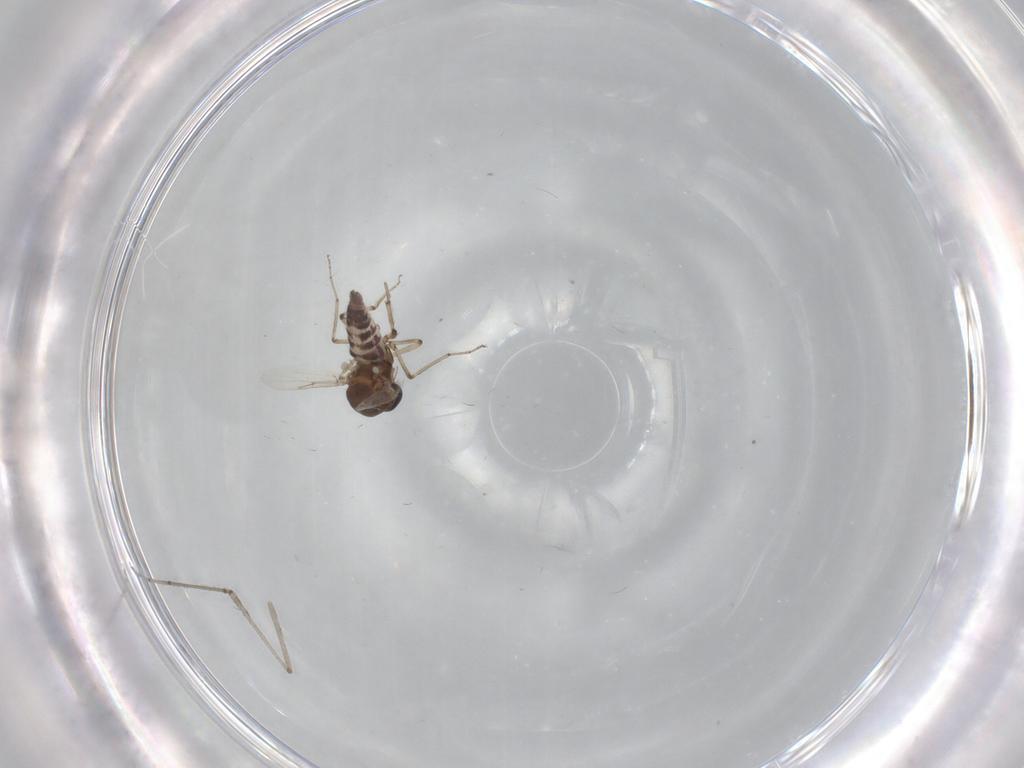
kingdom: Animalia
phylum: Arthropoda
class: Insecta
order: Diptera
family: Ceratopogonidae
